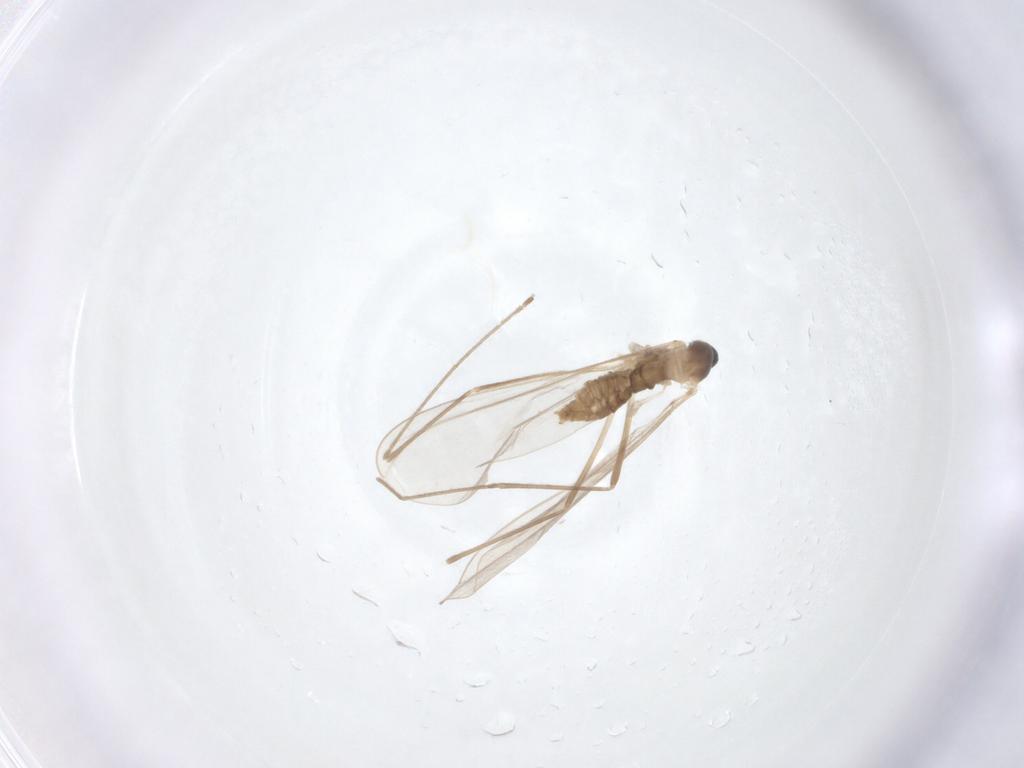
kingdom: Animalia
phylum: Arthropoda
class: Insecta
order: Diptera
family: Cecidomyiidae
